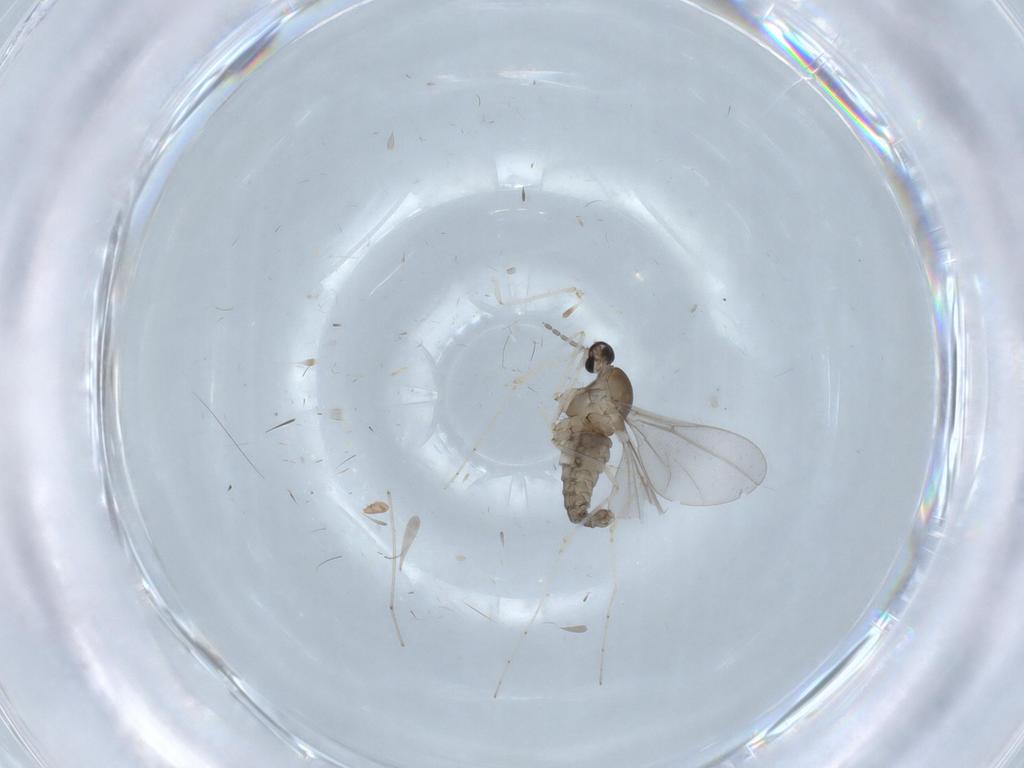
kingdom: Animalia
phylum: Arthropoda
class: Insecta
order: Diptera
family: Cecidomyiidae
